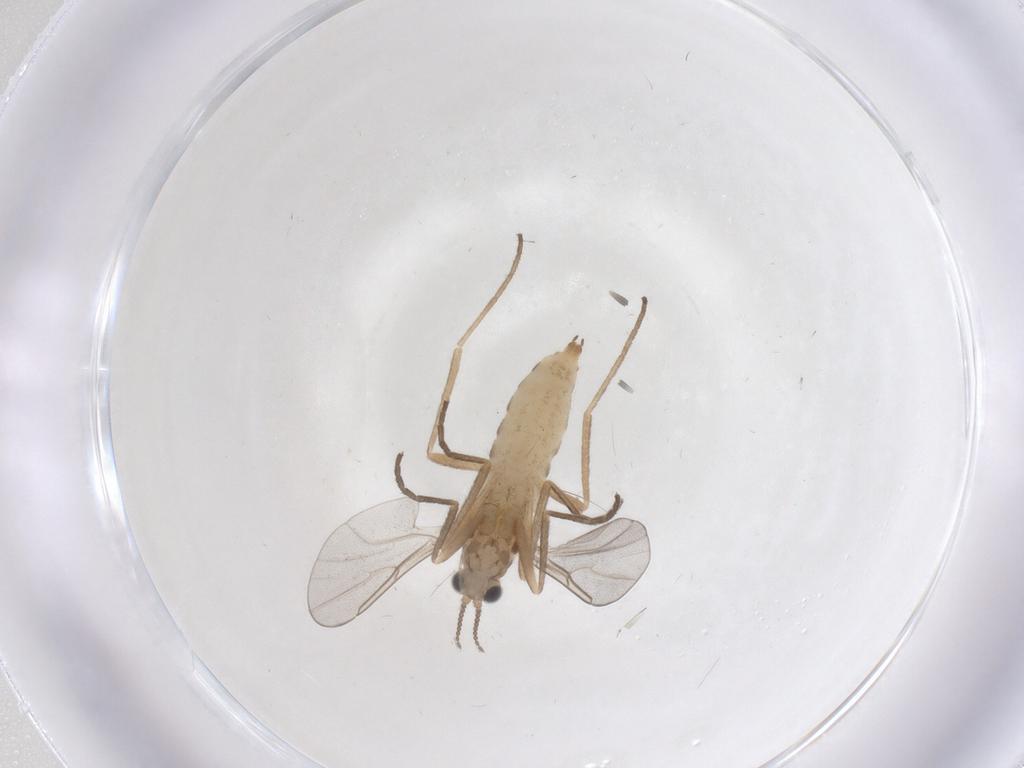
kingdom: Animalia
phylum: Arthropoda
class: Insecta
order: Diptera
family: Cecidomyiidae
